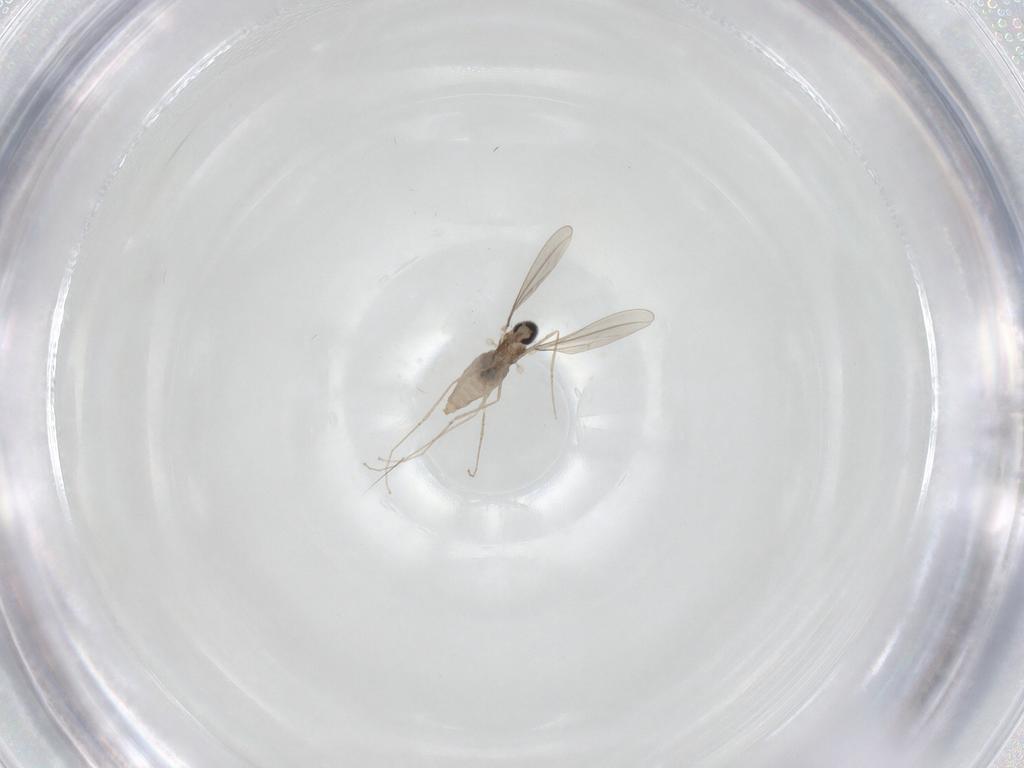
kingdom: Animalia
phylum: Arthropoda
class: Insecta
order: Diptera
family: Cecidomyiidae
